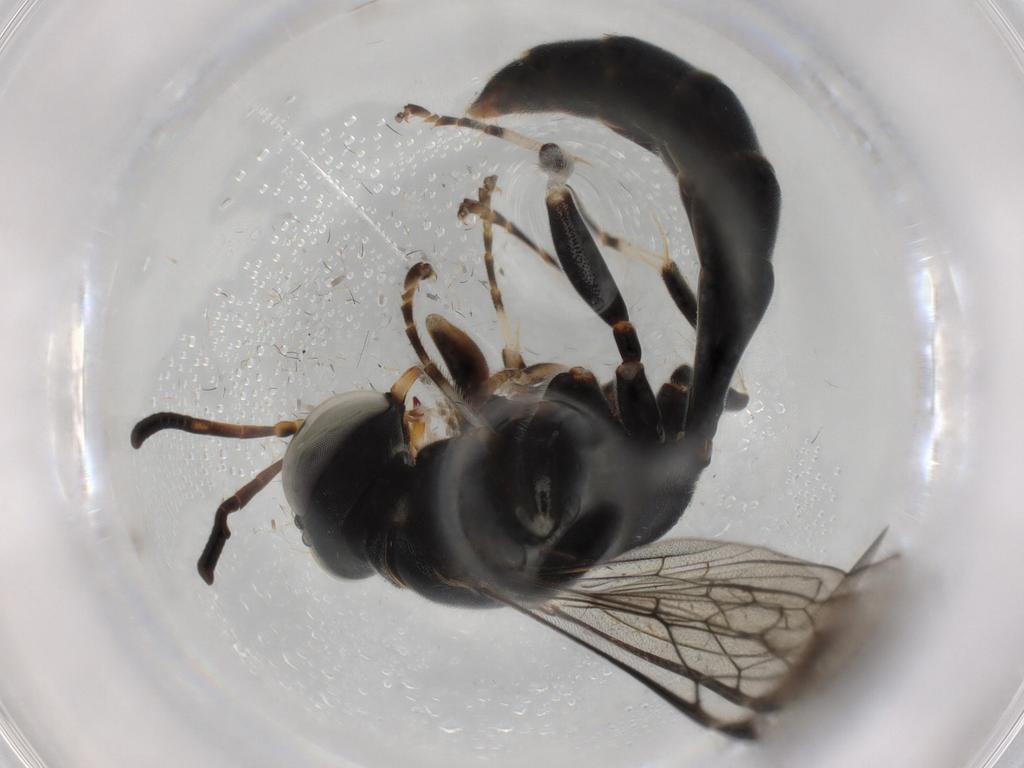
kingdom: Animalia
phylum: Arthropoda
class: Insecta
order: Hymenoptera
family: Crabronidae
